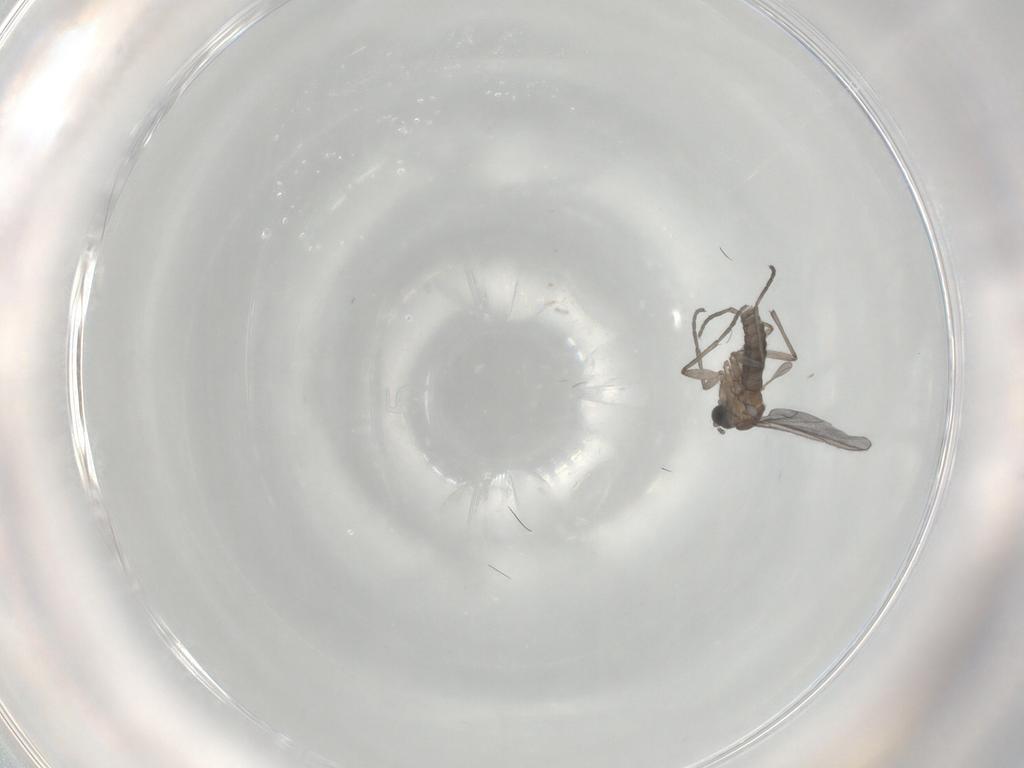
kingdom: Animalia
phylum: Arthropoda
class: Insecta
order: Diptera
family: Sciaridae
